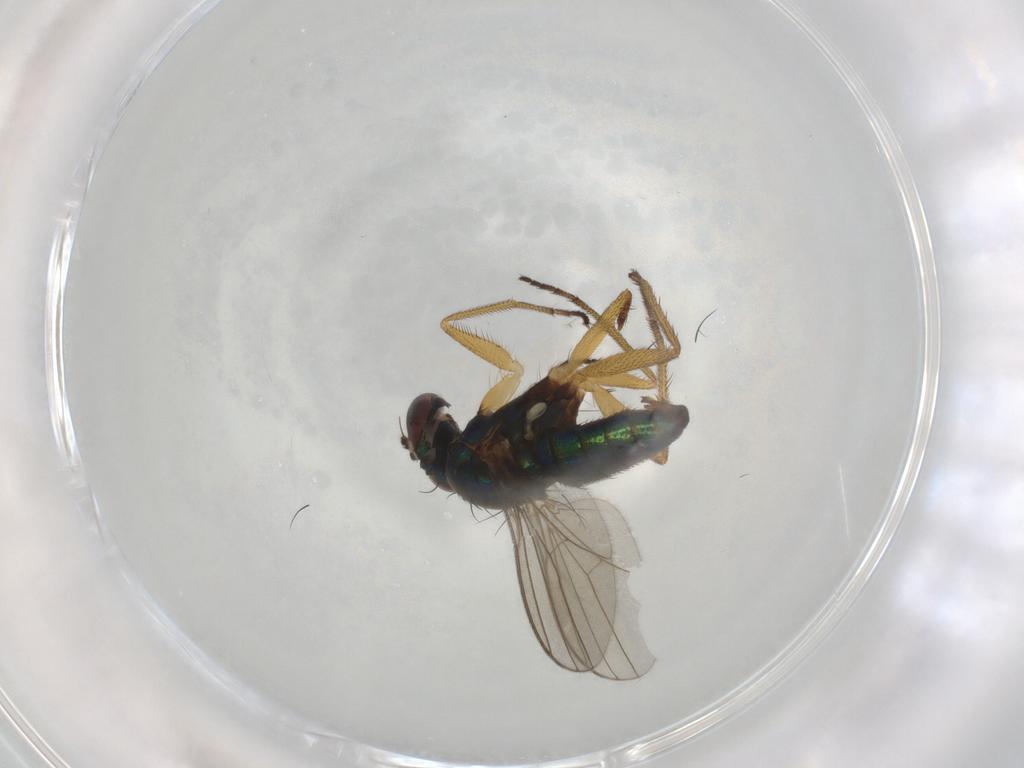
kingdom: Animalia
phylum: Arthropoda
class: Insecta
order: Diptera
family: Dolichopodidae
